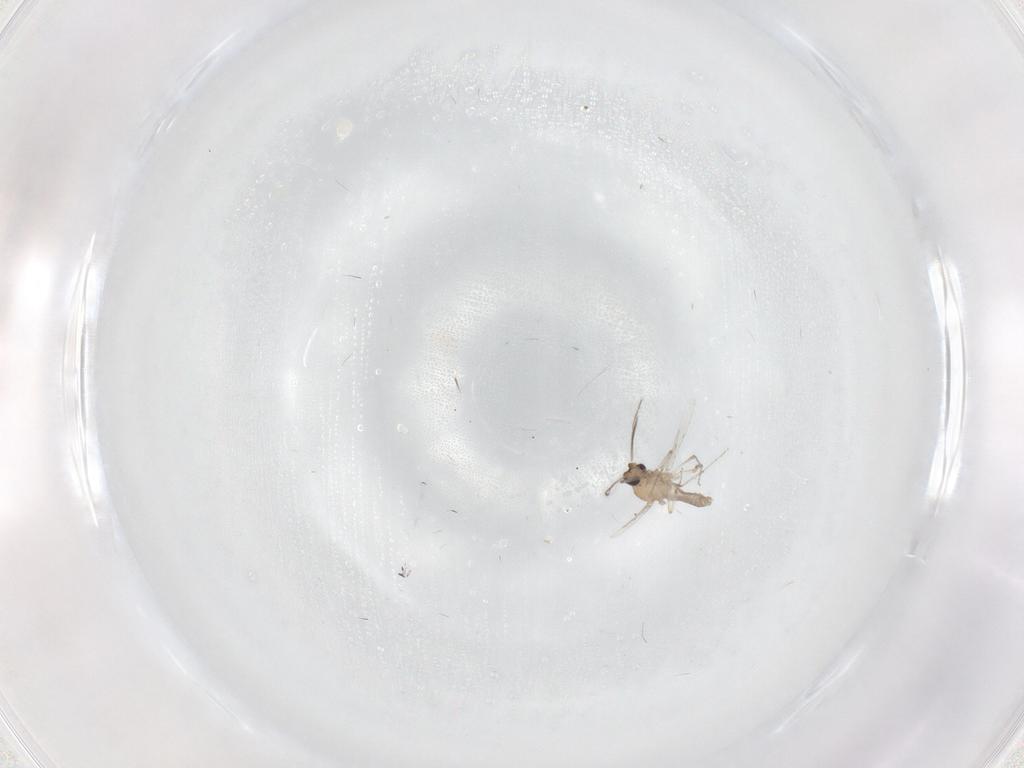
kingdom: Animalia
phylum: Arthropoda
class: Insecta
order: Diptera
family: Ceratopogonidae
